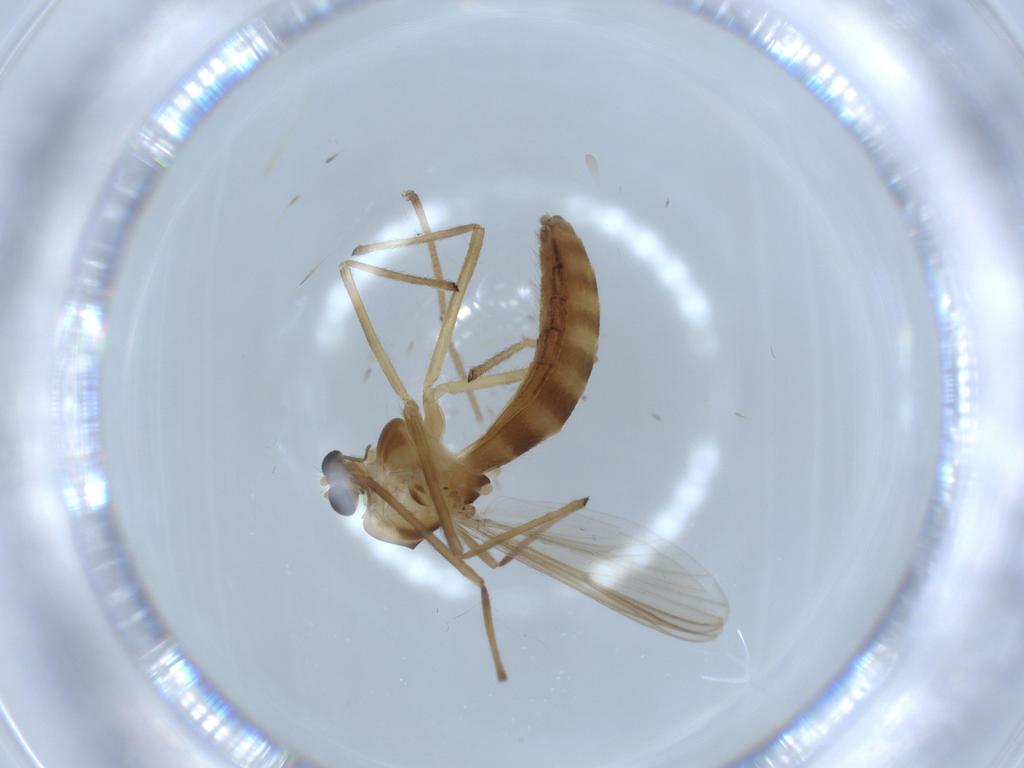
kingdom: Animalia
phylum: Arthropoda
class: Insecta
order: Diptera
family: Chironomidae
